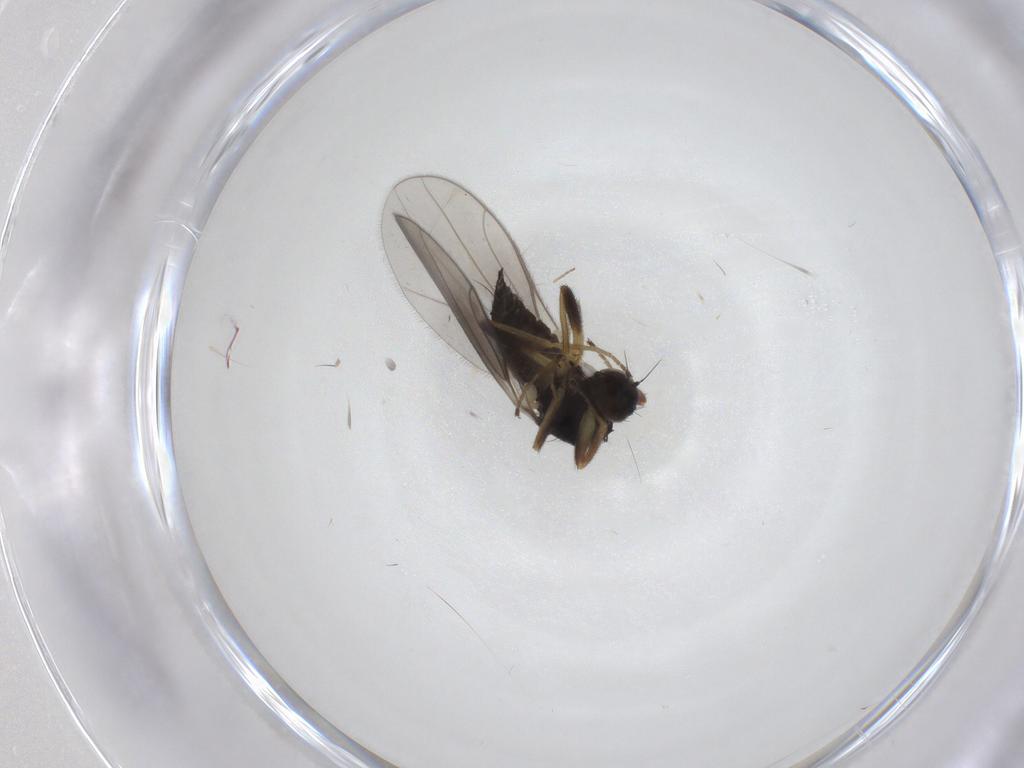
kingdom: Animalia
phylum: Arthropoda
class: Insecta
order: Diptera
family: Hybotidae
